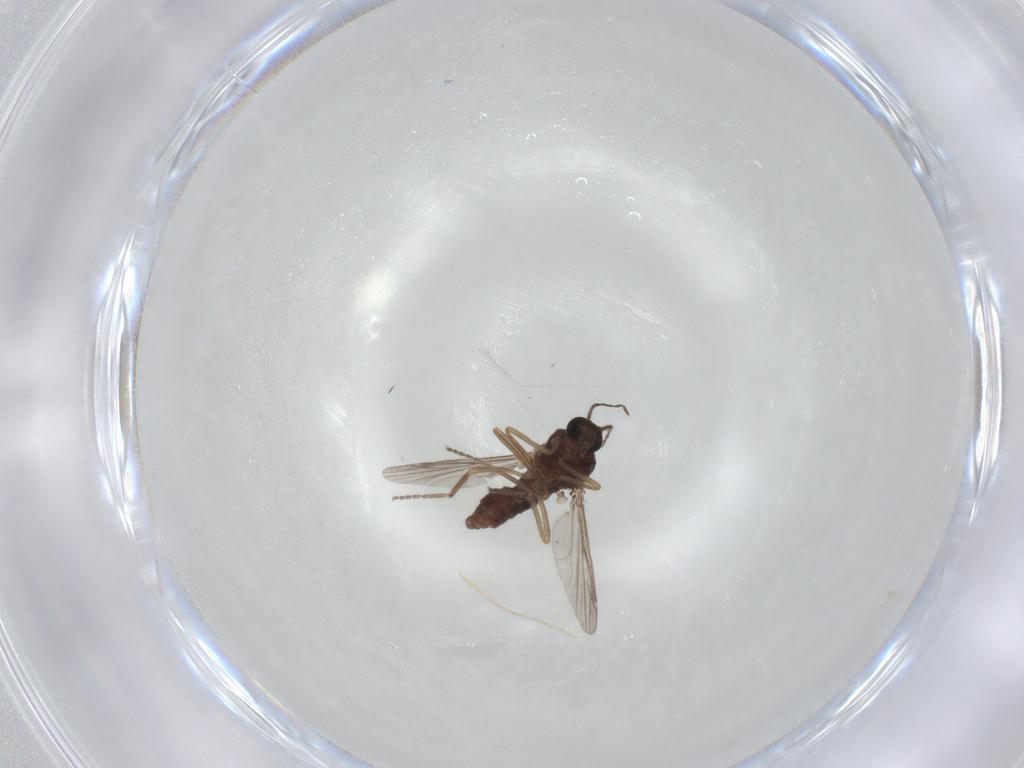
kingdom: Animalia
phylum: Arthropoda
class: Insecta
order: Diptera
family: Ceratopogonidae
